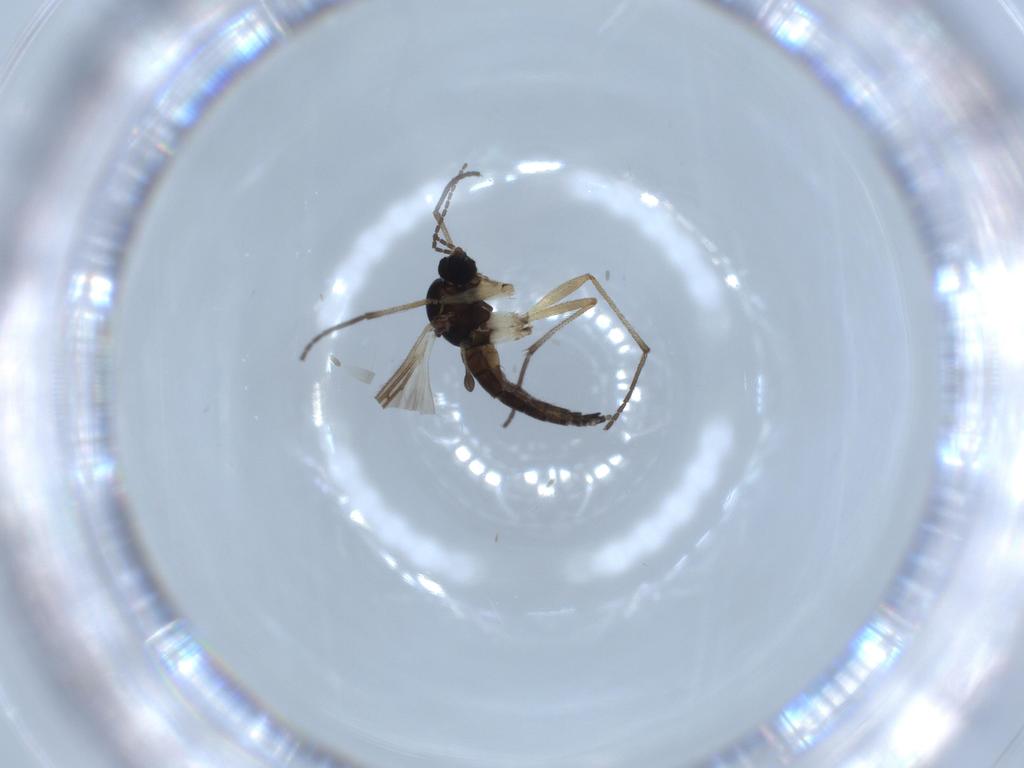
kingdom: Animalia
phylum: Arthropoda
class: Insecta
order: Diptera
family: Sciaridae
